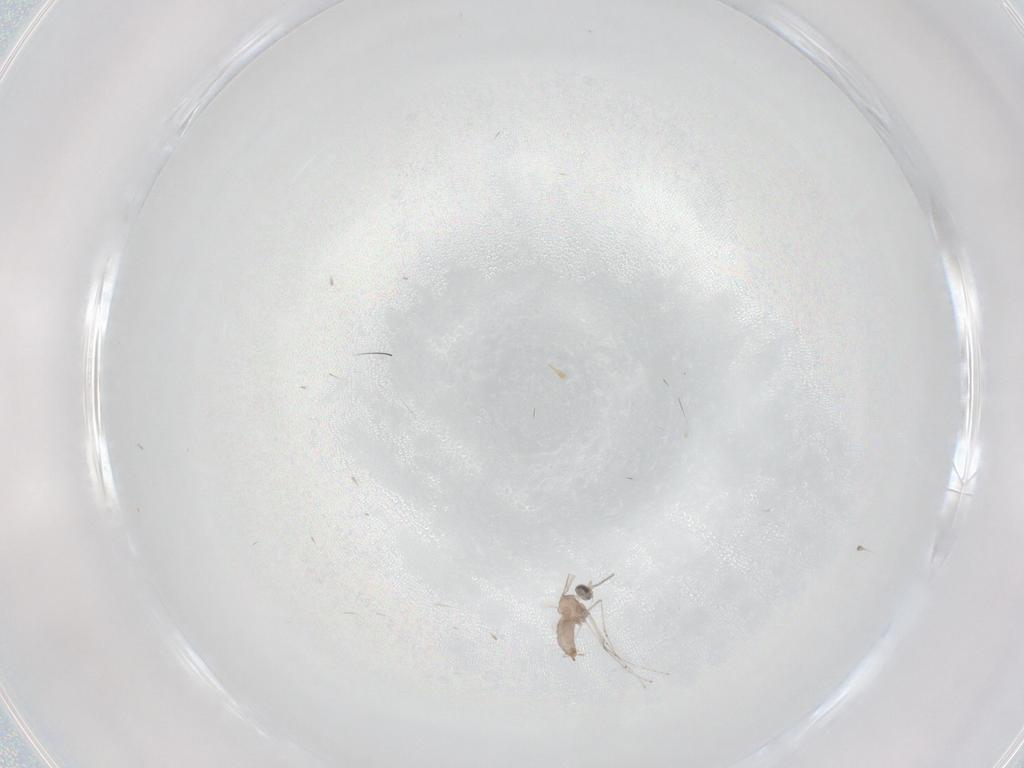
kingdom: Animalia
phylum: Arthropoda
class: Insecta
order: Diptera
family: Cecidomyiidae
